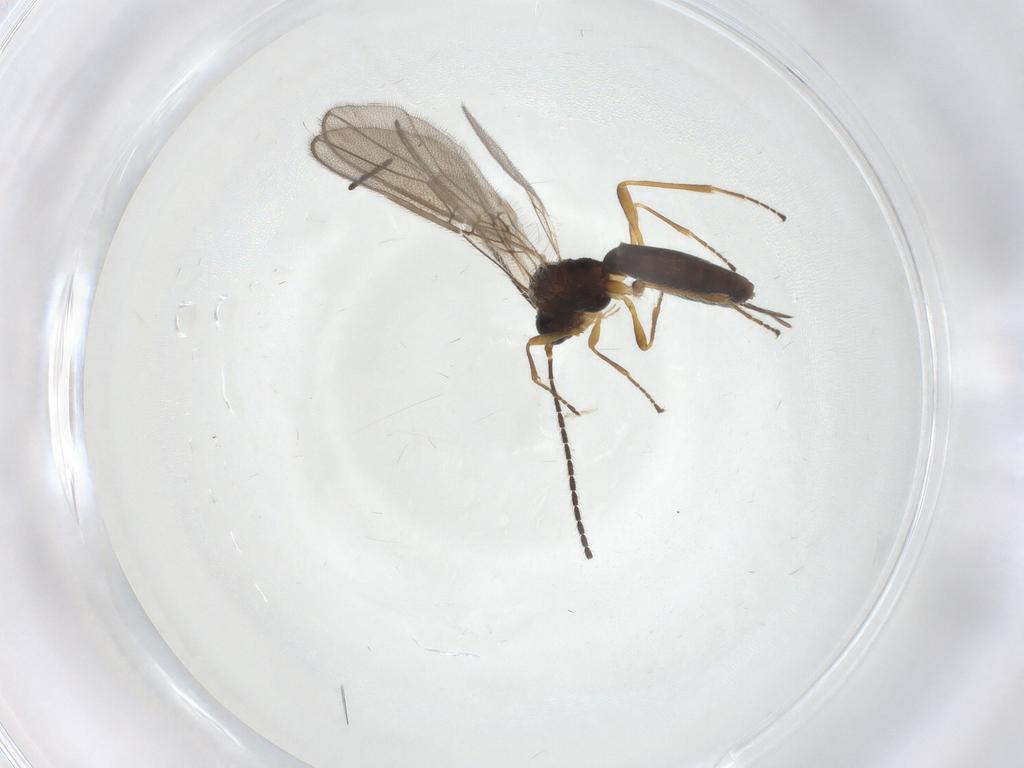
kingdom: Animalia
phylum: Arthropoda
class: Insecta
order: Hymenoptera
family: Braconidae
